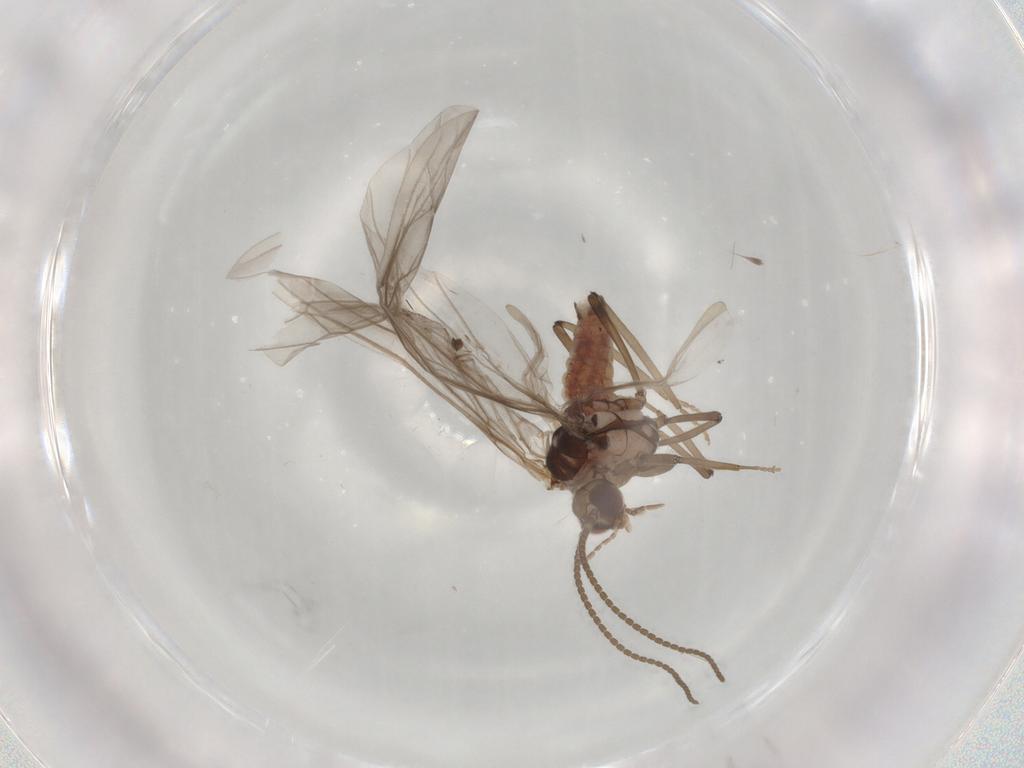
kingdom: Animalia
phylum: Arthropoda
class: Insecta
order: Neuroptera
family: Coniopterygidae
